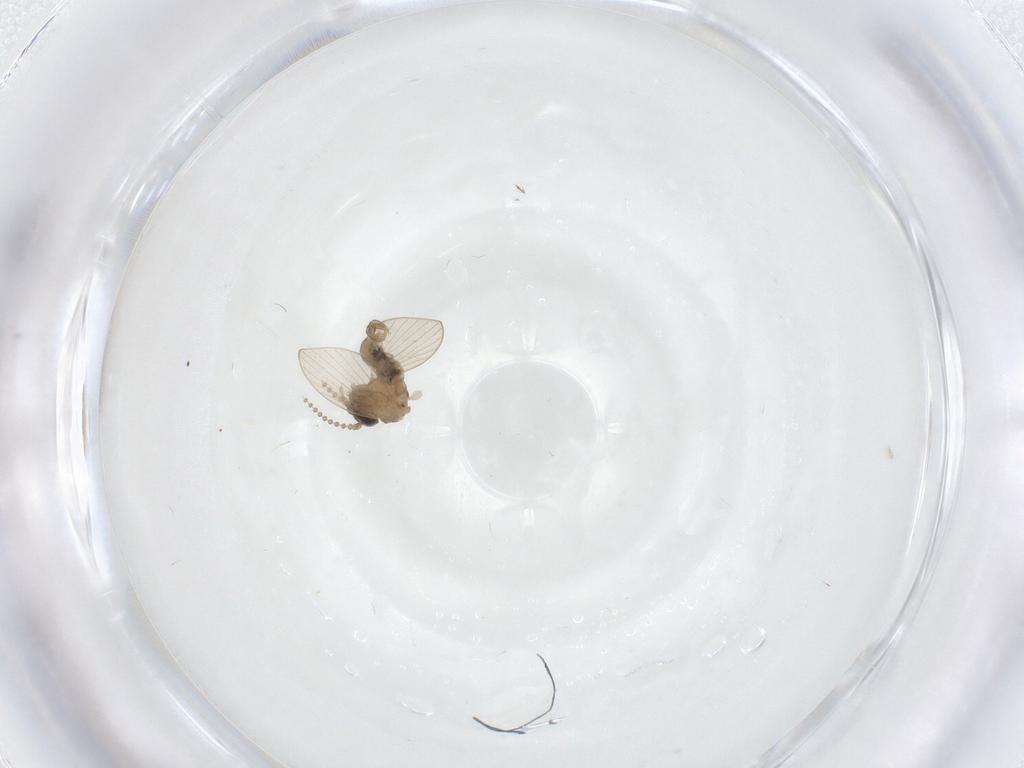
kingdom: Animalia
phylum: Arthropoda
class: Insecta
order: Diptera
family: Psychodidae
